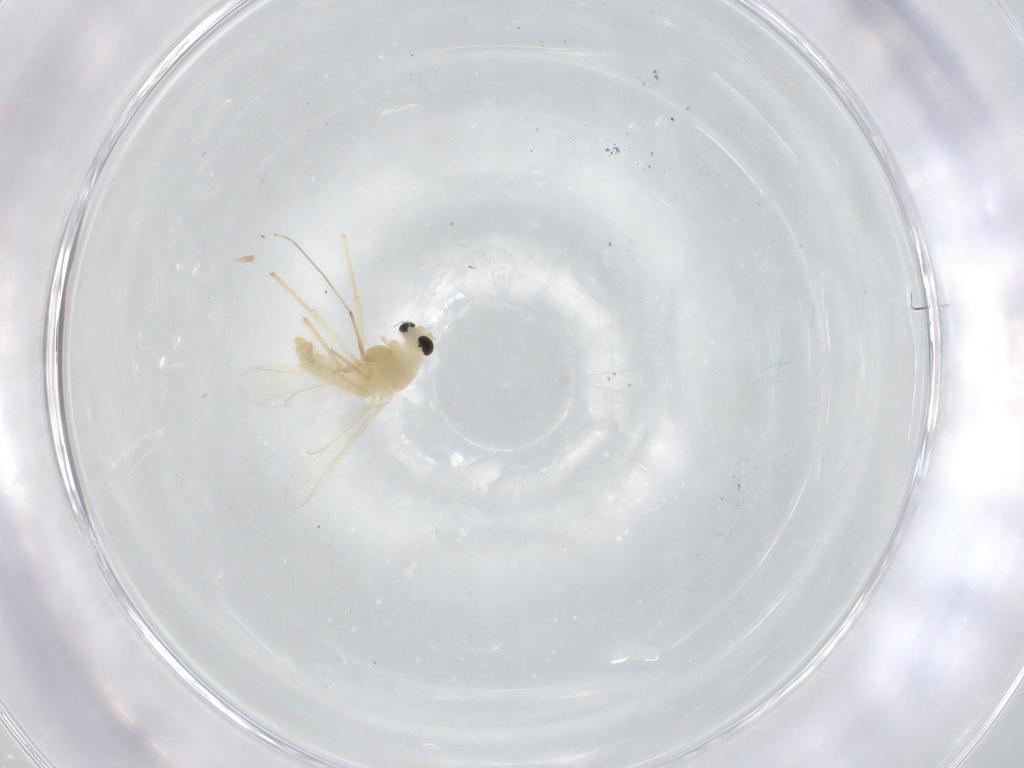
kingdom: Animalia
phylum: Arthropoda
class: Insecta
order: Diptera
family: Chironomidae
